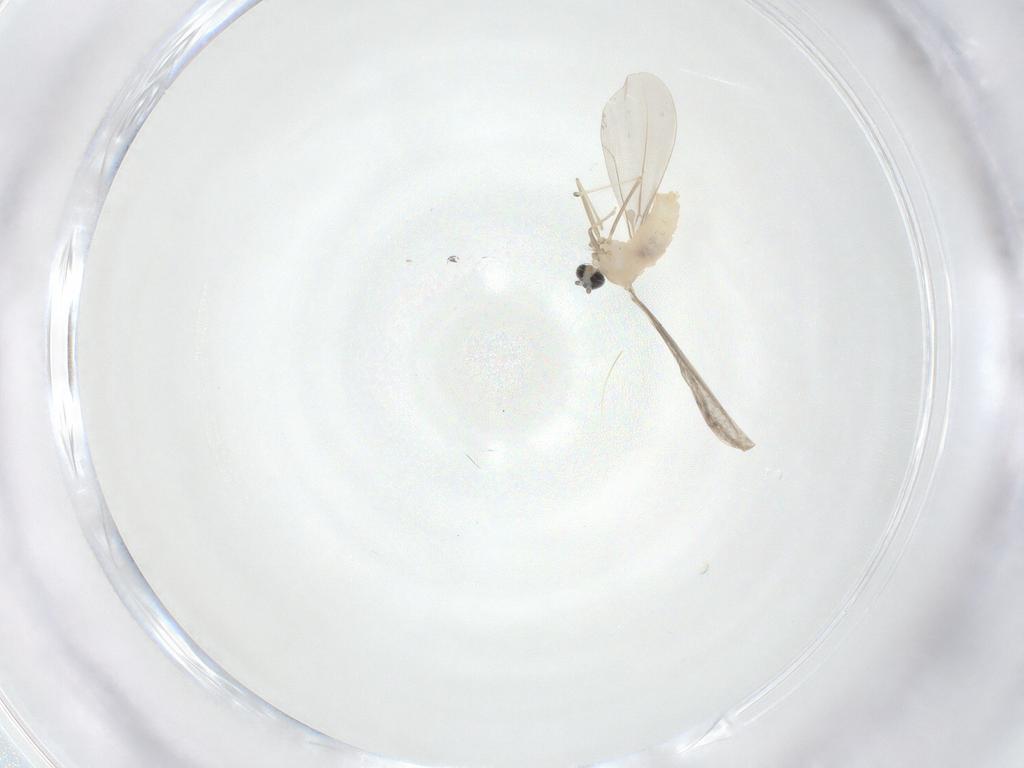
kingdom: Animalia
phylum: Arthropoda
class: Insecta
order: Diptera
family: Cecidomyiidae
